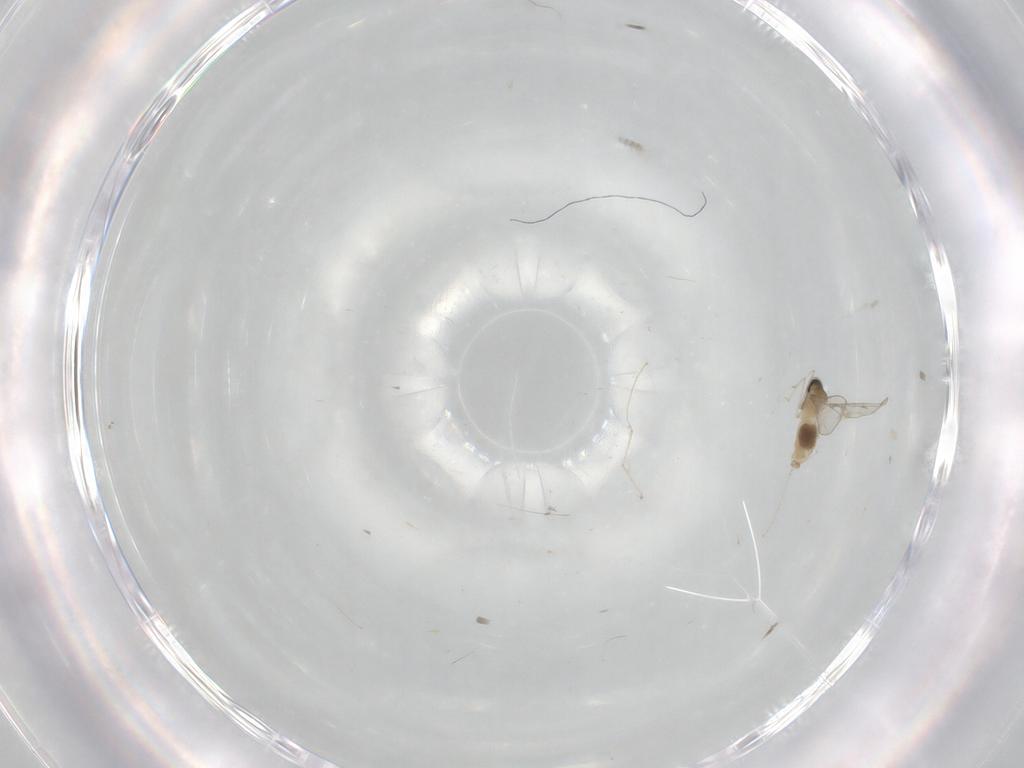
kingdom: Animalia
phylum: Arthropoda
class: Insecta
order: Diptera
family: Cecidomyiidae
